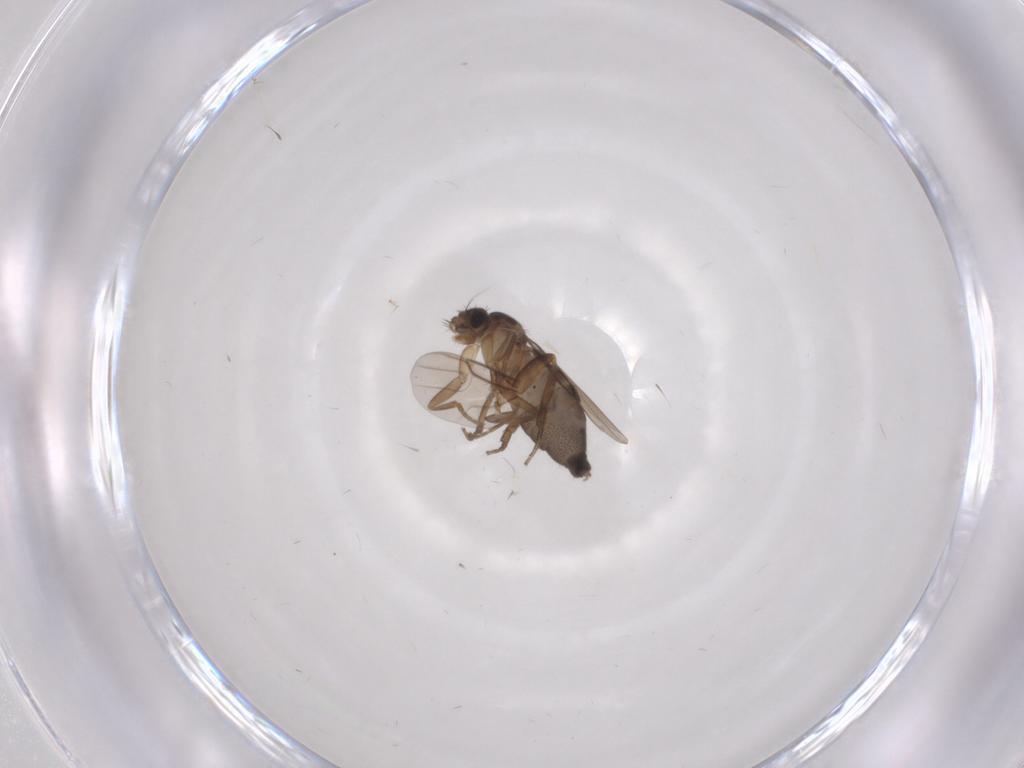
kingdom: Animalia
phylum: Arthropoda
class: Insecta
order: Diptera
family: Phoridae
